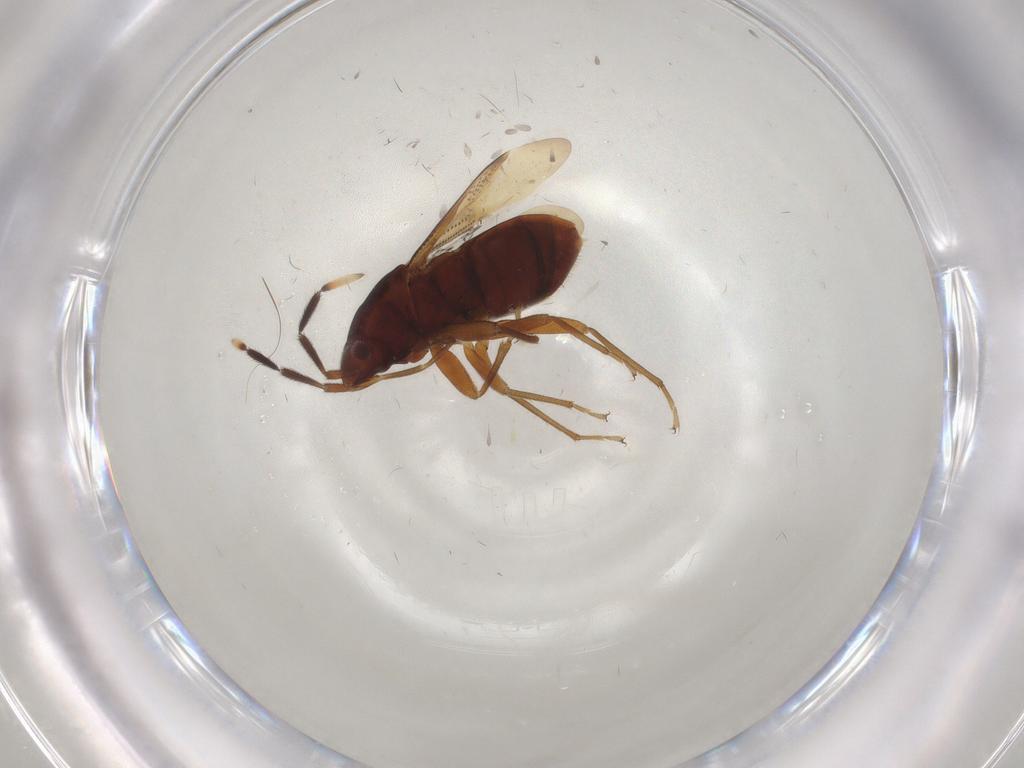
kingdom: Animalia
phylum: Arthropoda
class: Insecta
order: Hemiptera
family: Rhyparochromidae
